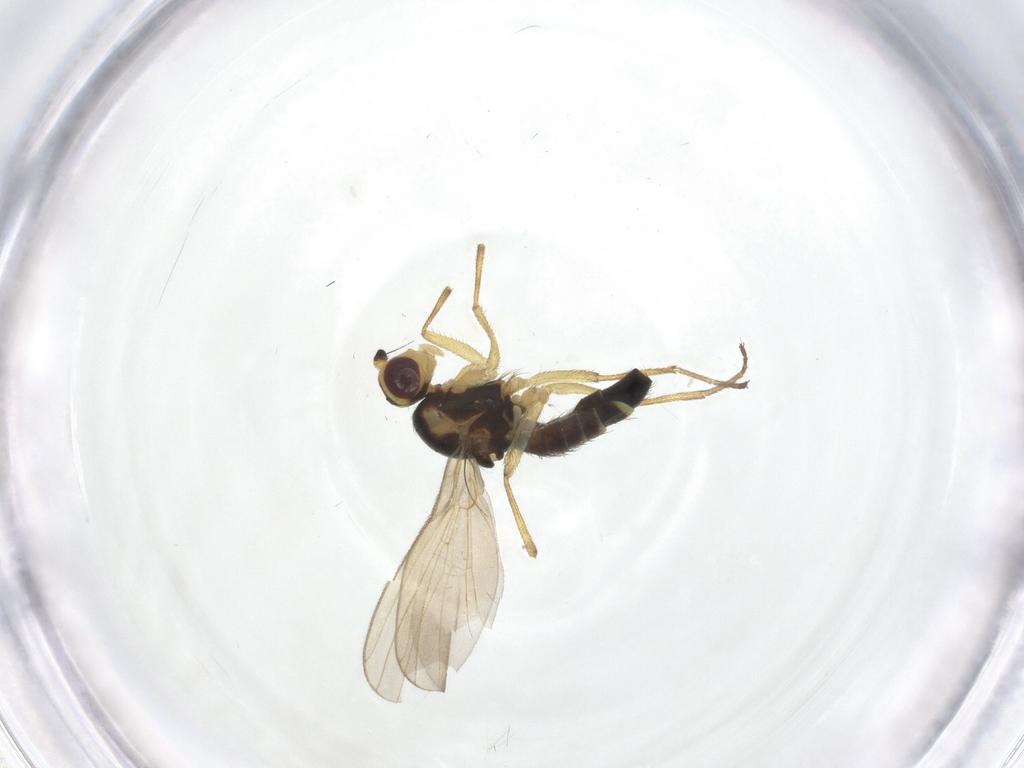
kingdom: Animalia
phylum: Arthropoda
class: Insecta
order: Diptera
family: Agromyzidae
